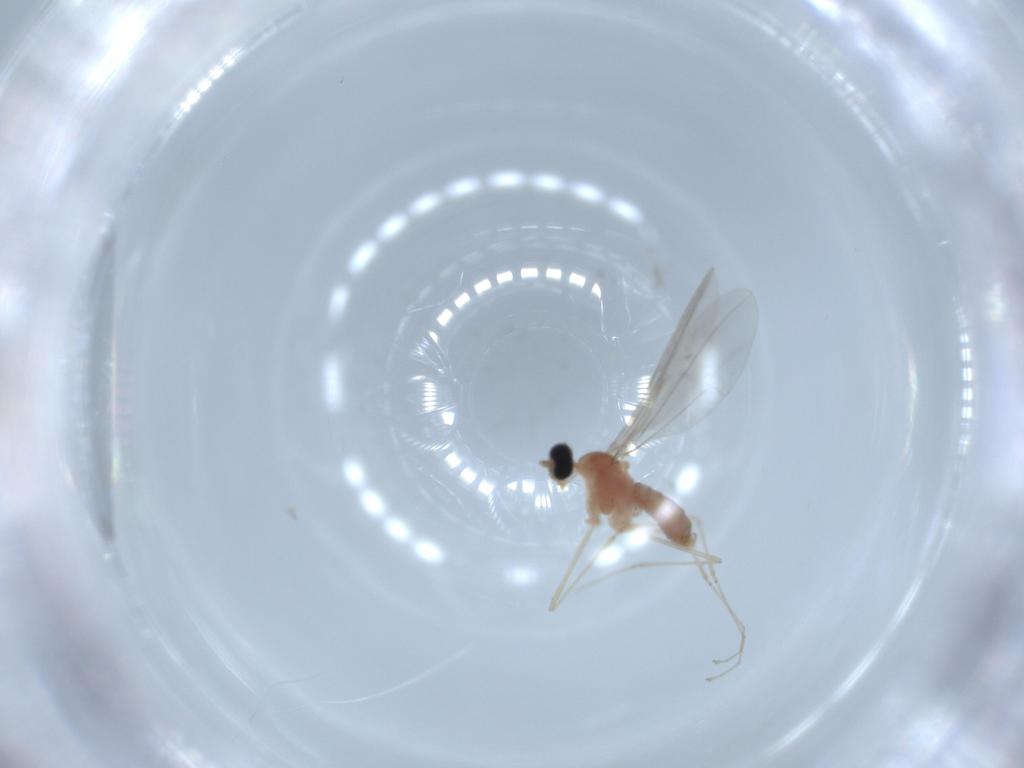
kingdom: Animalia
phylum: Arthropoda
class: Insecta
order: Diptera
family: Cecidomyiidae
